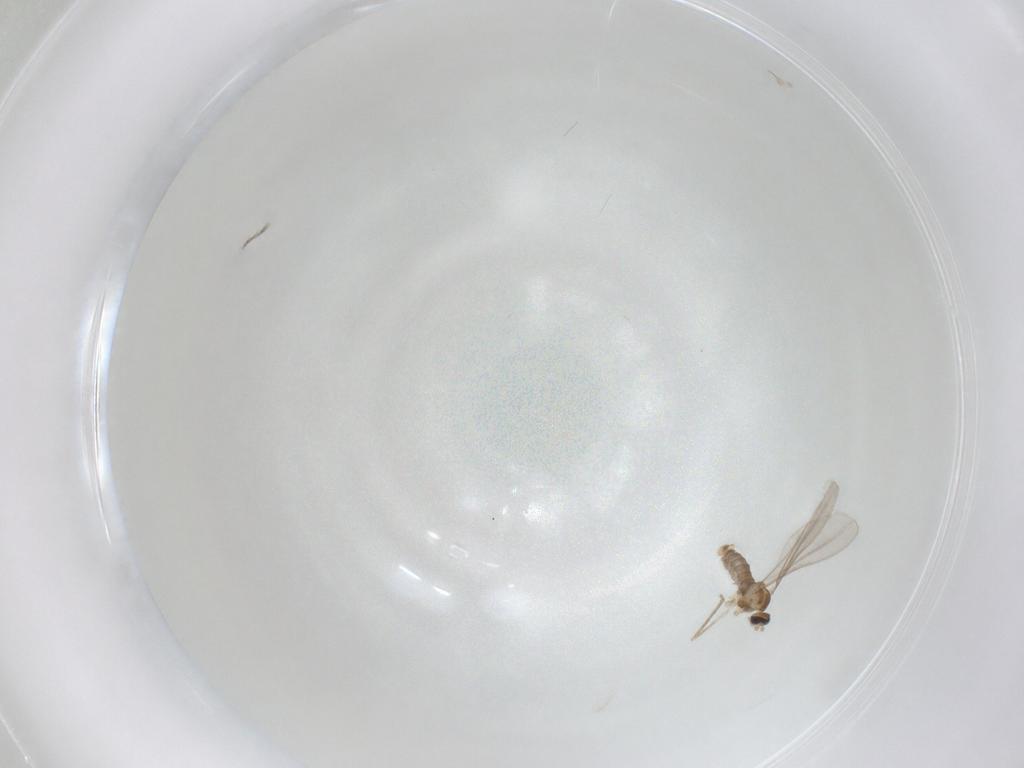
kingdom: Animalia
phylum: Arthropoda
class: Insecta
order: Diptera
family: Cecidomyiidae
